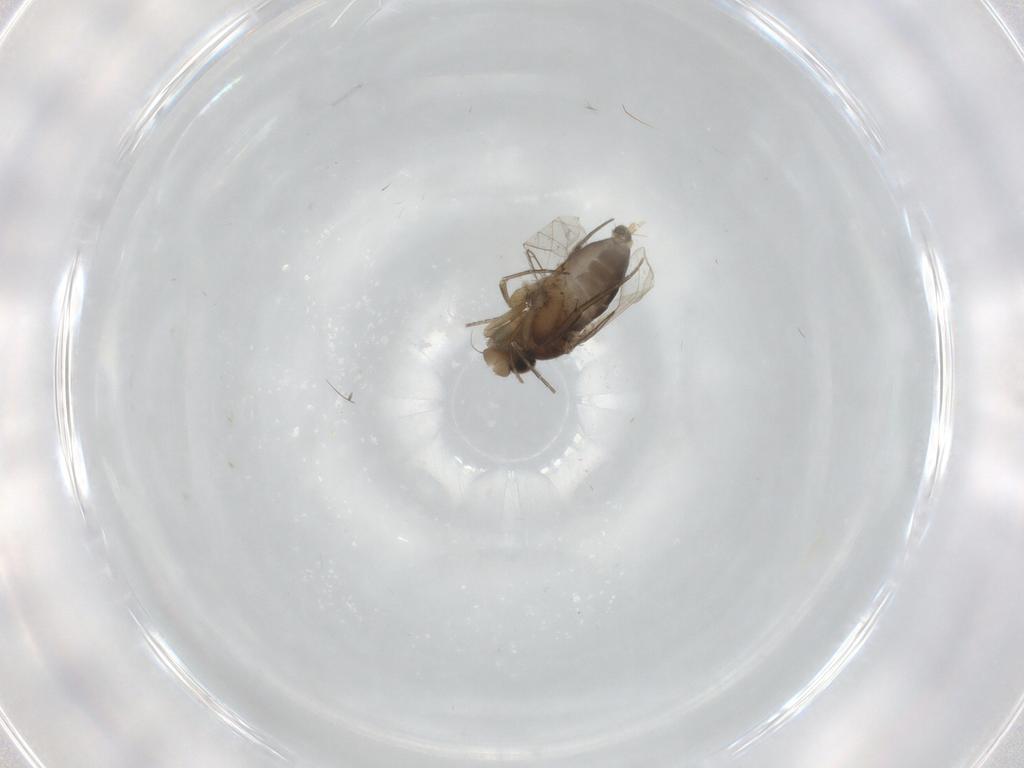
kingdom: Animalia
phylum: Arthropoda
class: Insecta
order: Diptera
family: Phoridae
